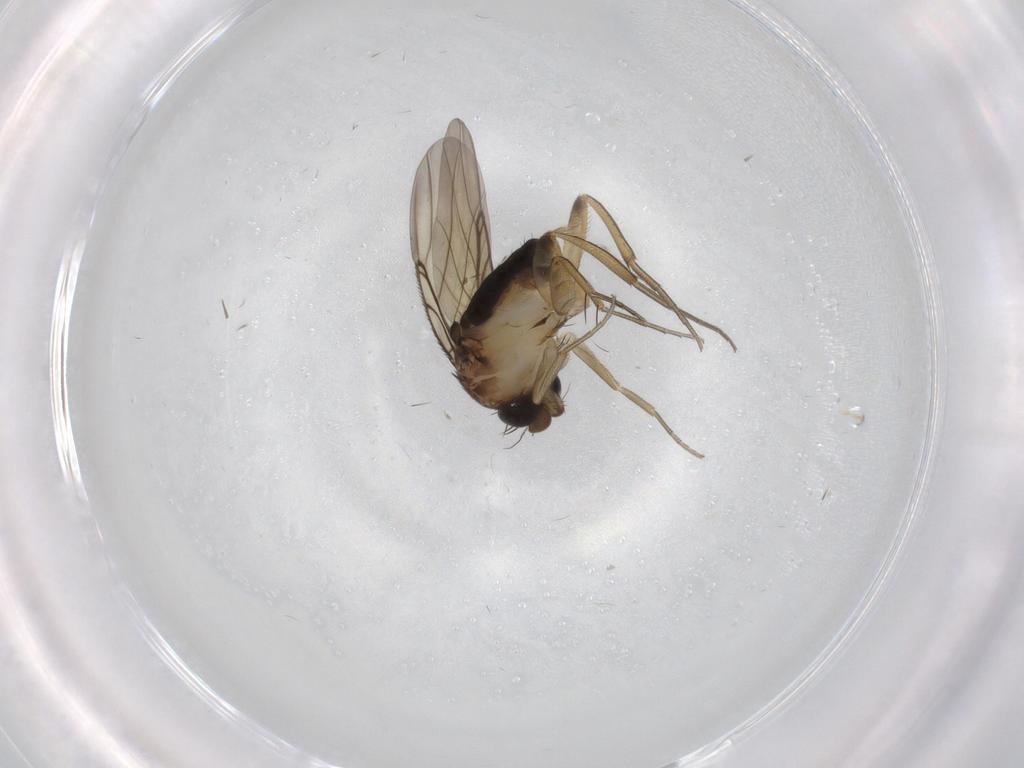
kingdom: Animalia
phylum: Arthropoda
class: Insecta
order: Diptera
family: Phoridae
